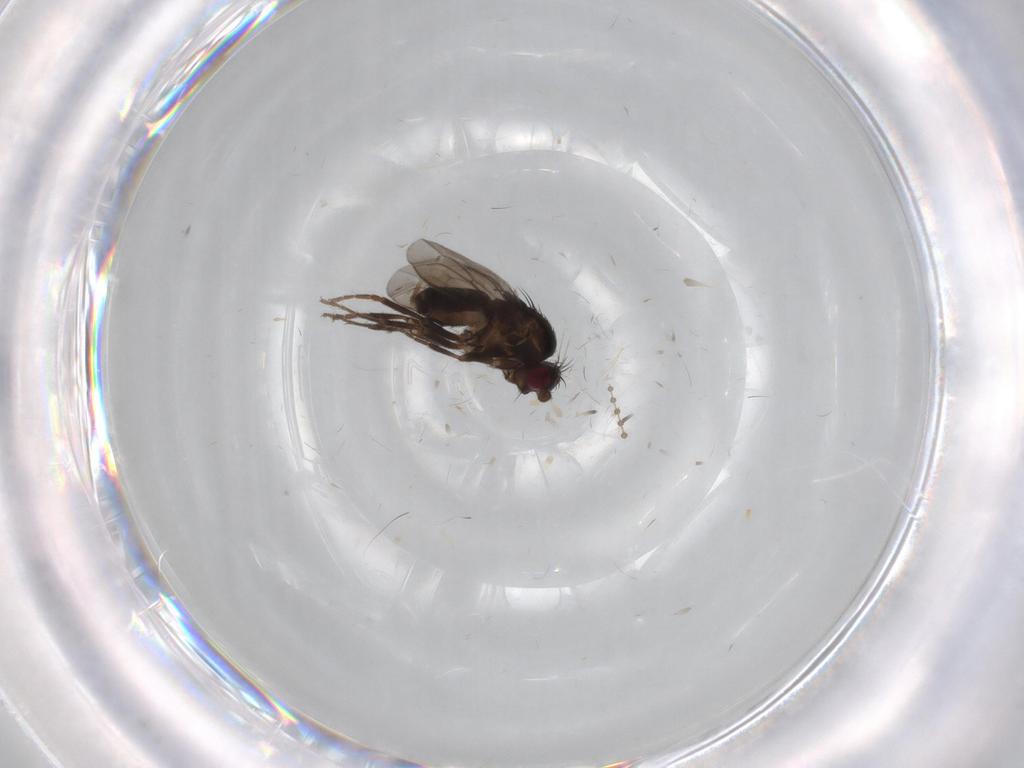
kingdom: Animalia
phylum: Arthropoda
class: Insecta
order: Diptera
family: Sphaeroceridae
